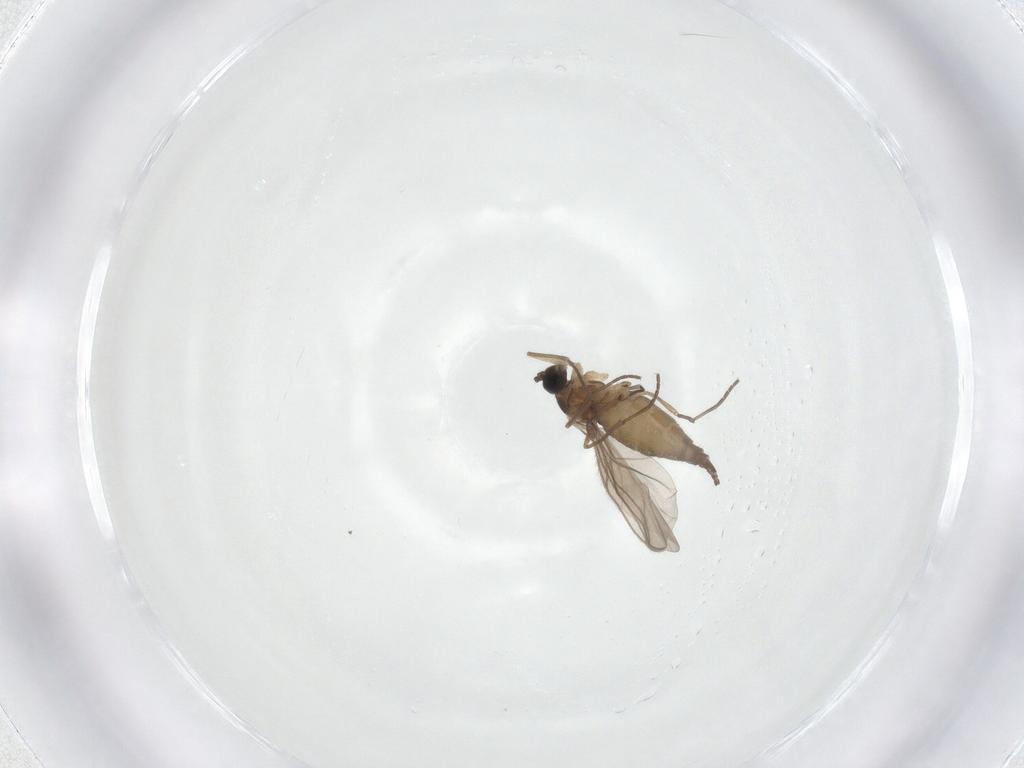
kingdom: Animalia
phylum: Arthropoda
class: Insecta
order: Diptera
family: Sciaridae
